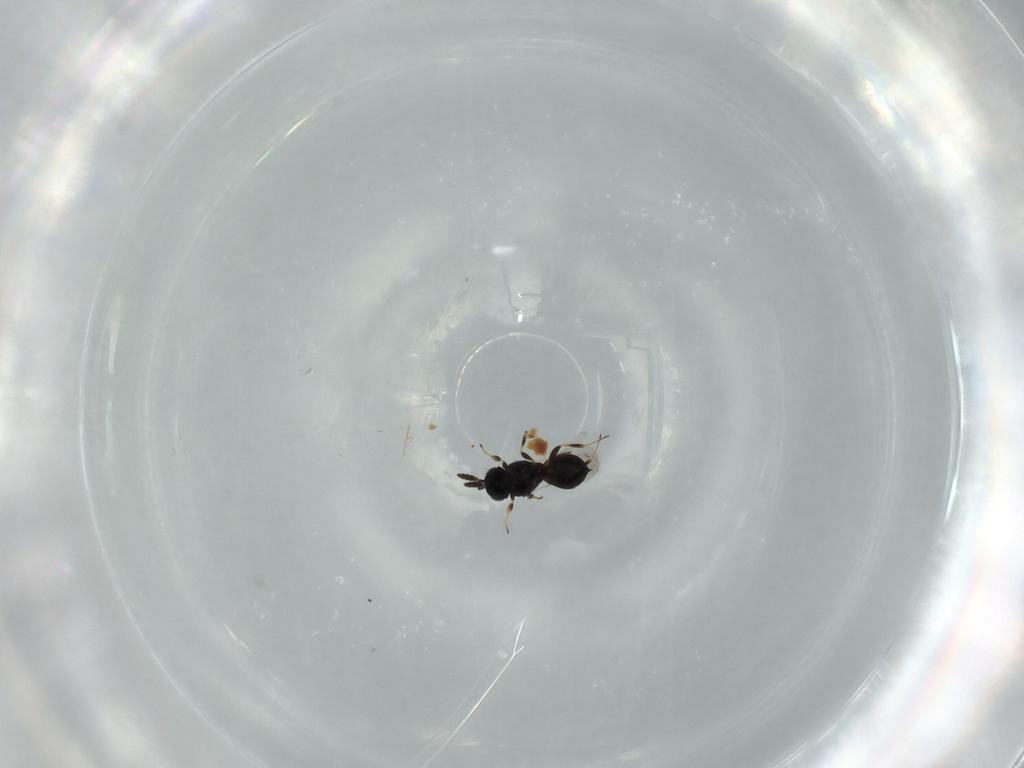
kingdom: Animalia
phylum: Arthropoda
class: Insecta
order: Hymenoptera
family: Scelionidae
